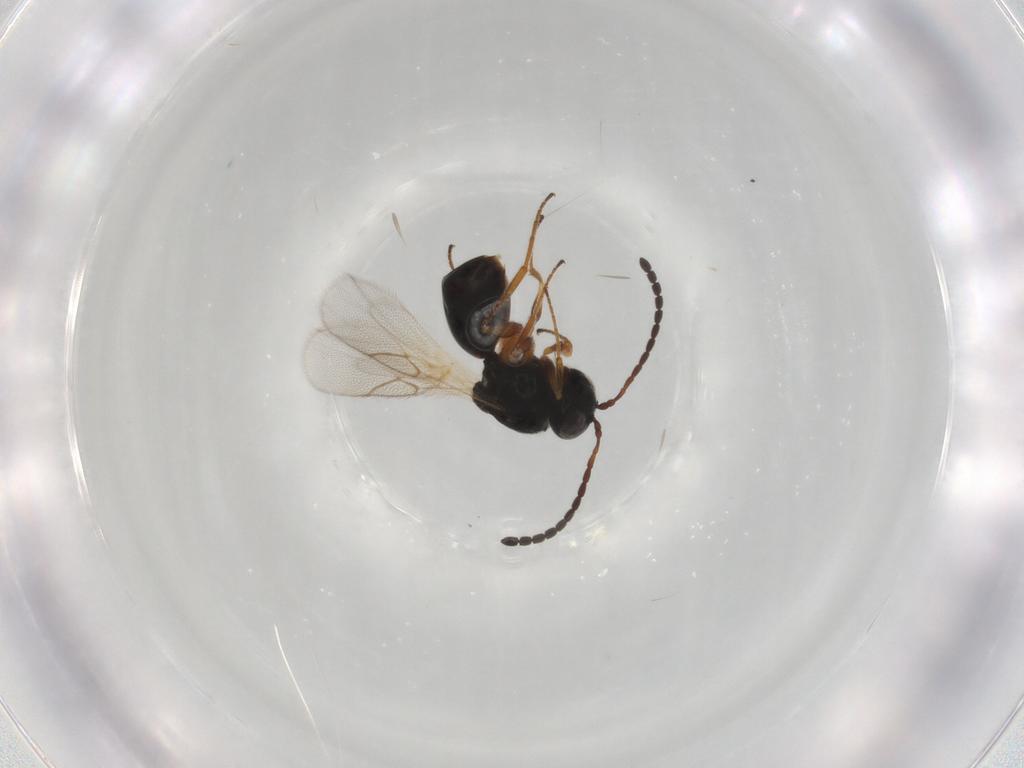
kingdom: Animalia
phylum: Arthropoda
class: Insecta
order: Hymenoptera
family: Figitidae
